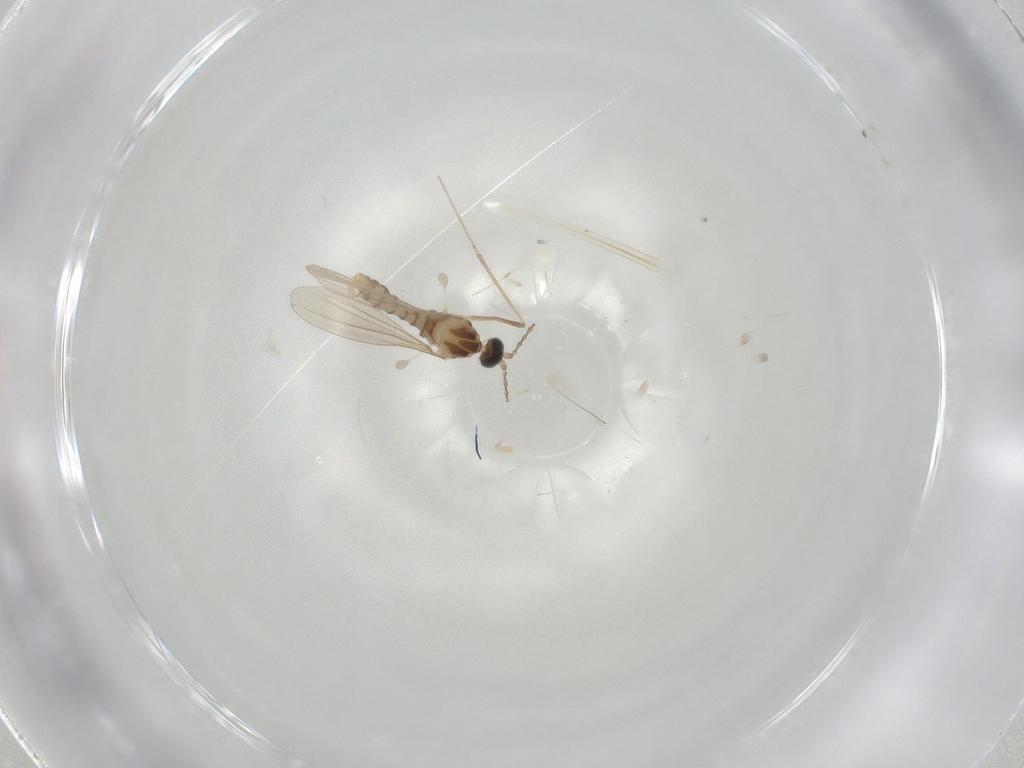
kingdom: Animalia
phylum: Arthropoda
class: Insecta
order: Diptera
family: Cecidomyiidae
